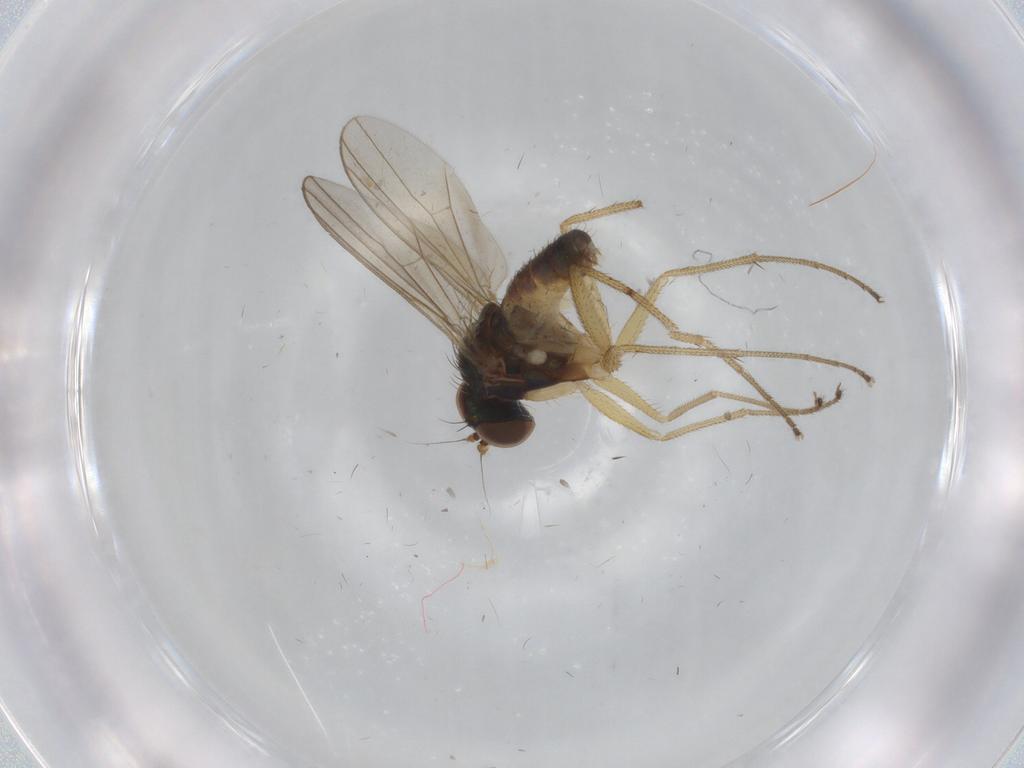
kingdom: Animalia
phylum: Arthropoda
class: Insecta
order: Diptera
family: Dolichopodidae
